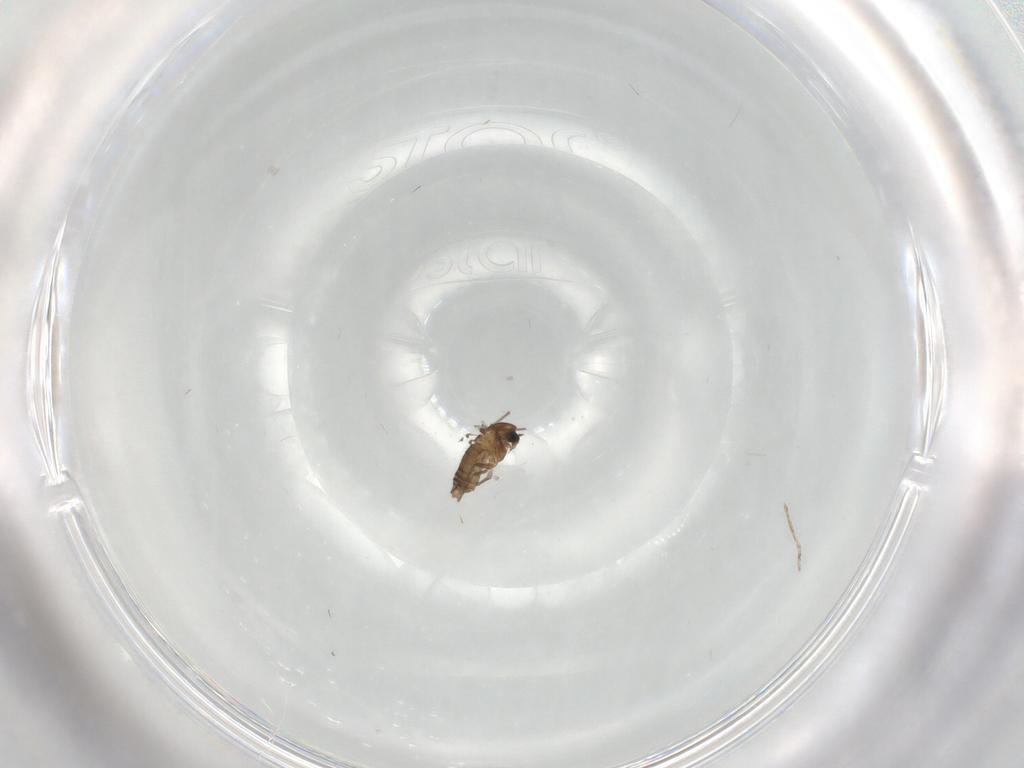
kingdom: Animalia
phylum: Arthropoda
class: Insecta
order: Diptera
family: Chironomidae
